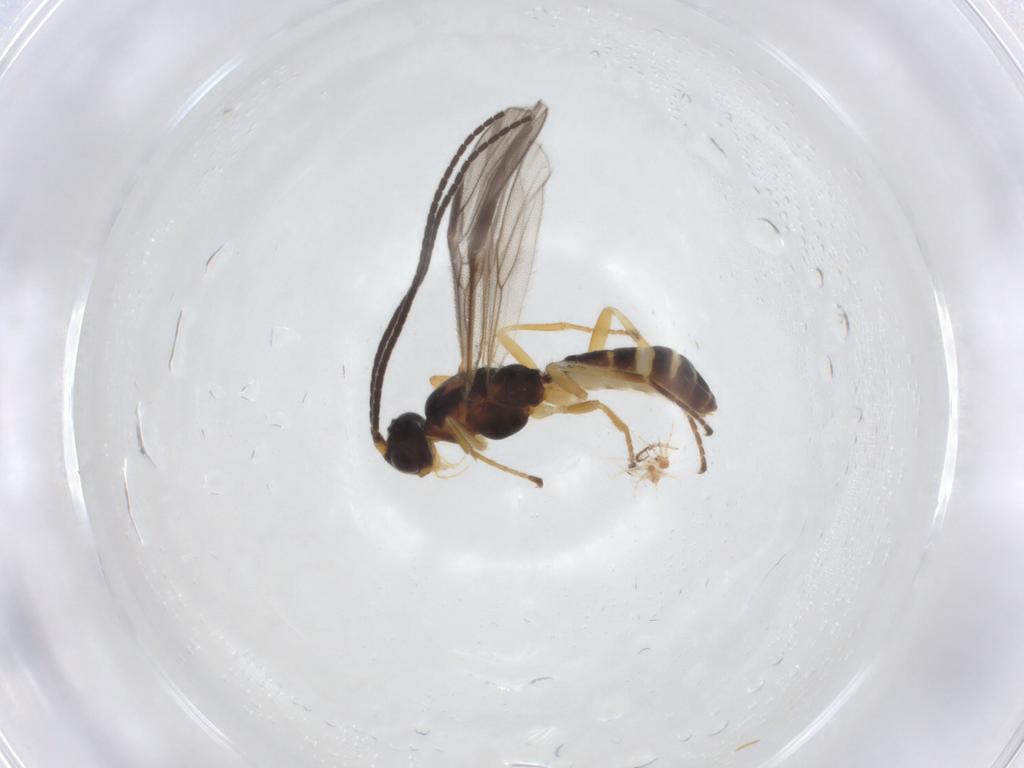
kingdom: Animalia
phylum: Arthropoda
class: Insecta
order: Hymenoptera
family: Braconidae
